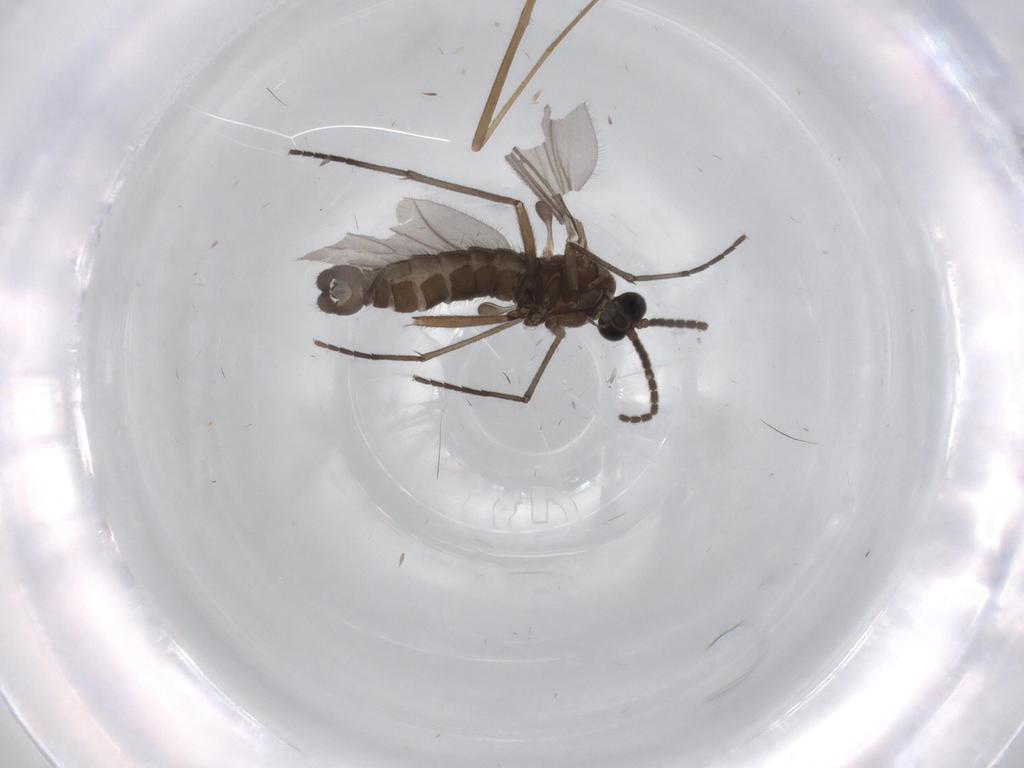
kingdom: Animalia
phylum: Arthropoda
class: Insecta
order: Diptera
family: Sciaridae
